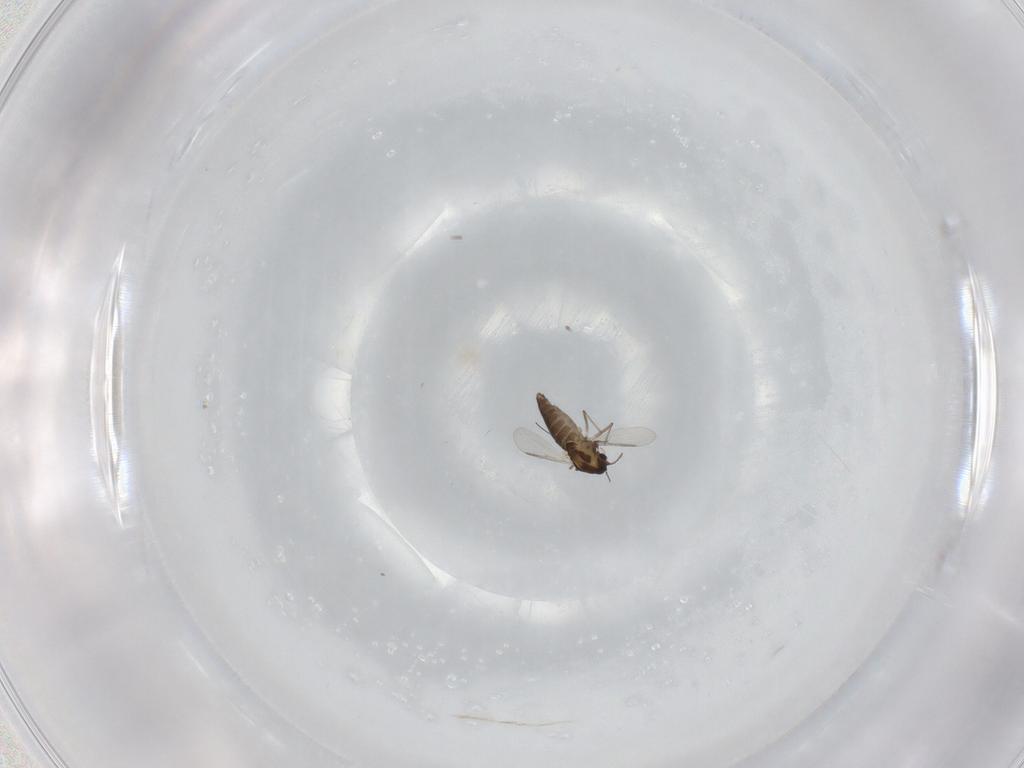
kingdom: Animalia
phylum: Arthropoda
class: Insecta
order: Diptera
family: Chironomidae
